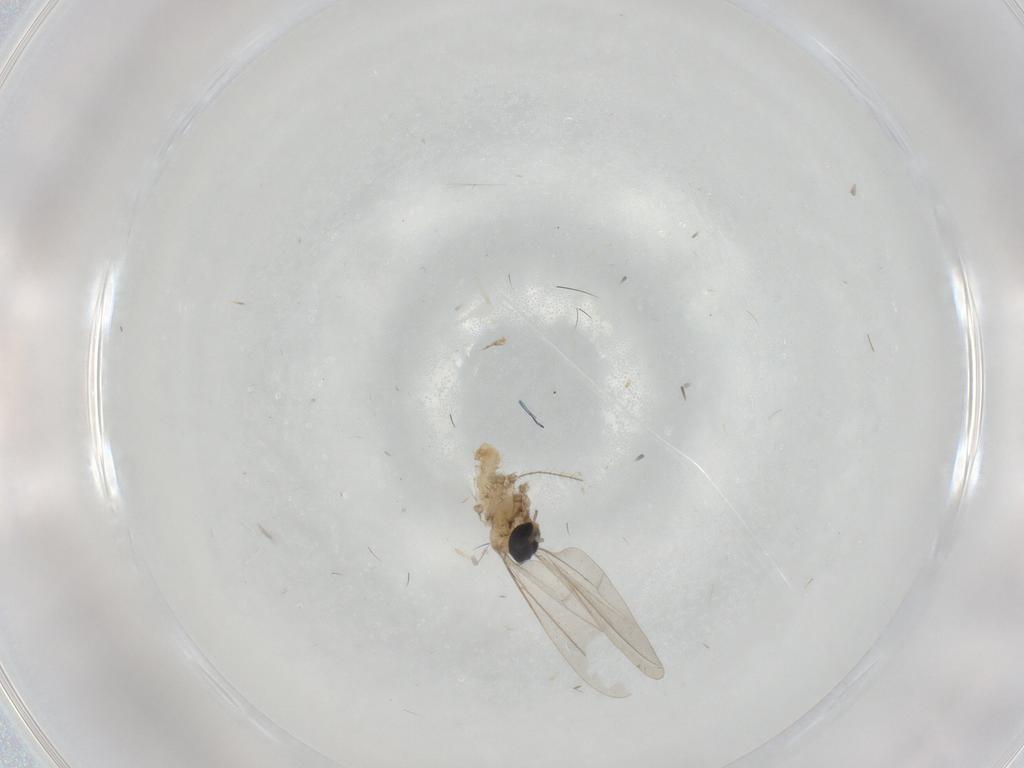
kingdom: Animalia
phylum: Arthropoda
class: Insecta
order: Diptera
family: Cecidomyiidae
